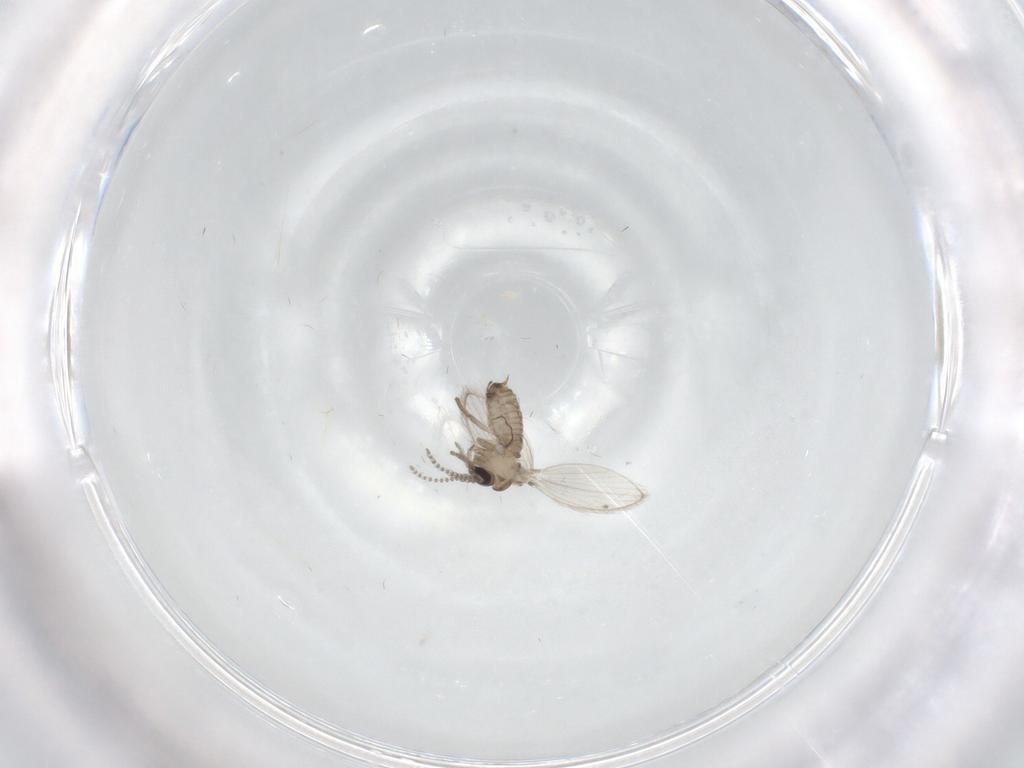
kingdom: Animalia
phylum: Arthropoda
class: Insecta
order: Diptera
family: Psychodidae
